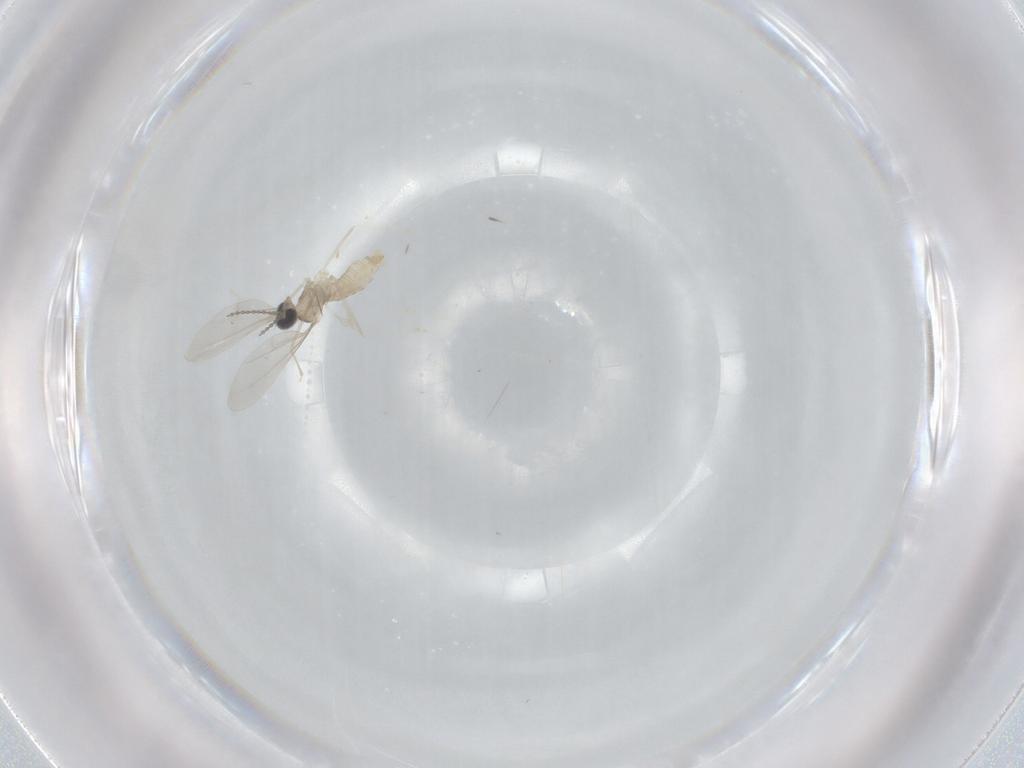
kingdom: Animalia
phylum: Arthropoda
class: Insecta
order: Diptera
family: Cecidomyiidae
